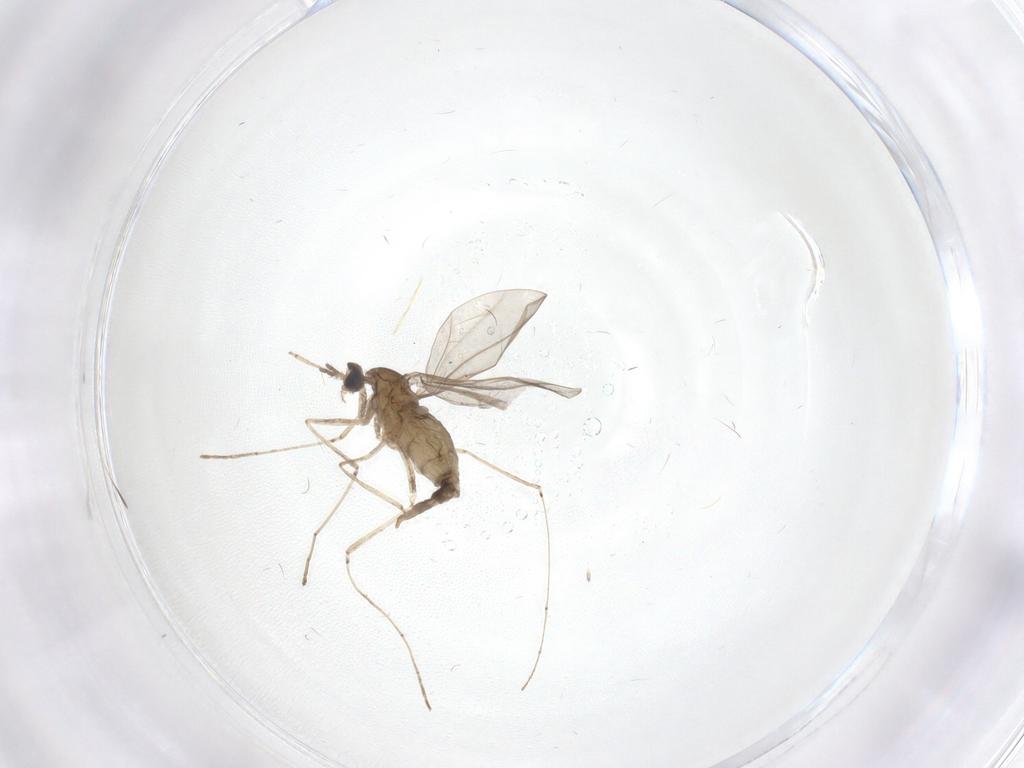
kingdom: Animalia
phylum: Arthropoda
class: Insecta
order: Diptera
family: Chironomidae
